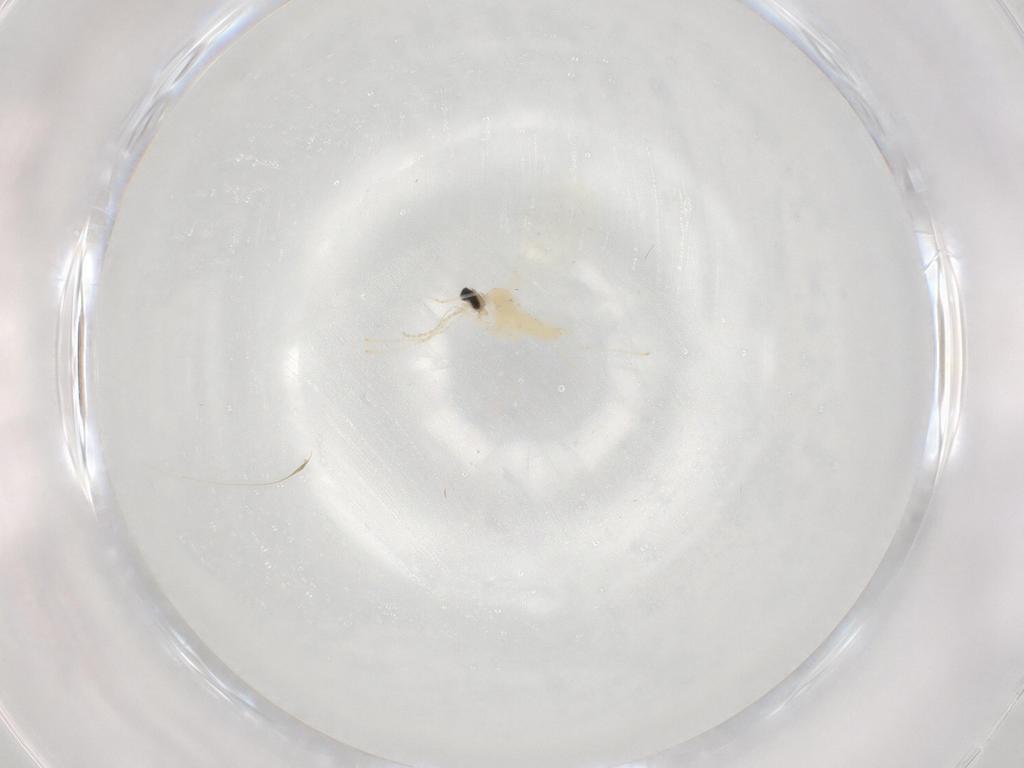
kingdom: Animalia
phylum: Arthropoda
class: Insecta
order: Diptera
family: Cecidomyiidae
